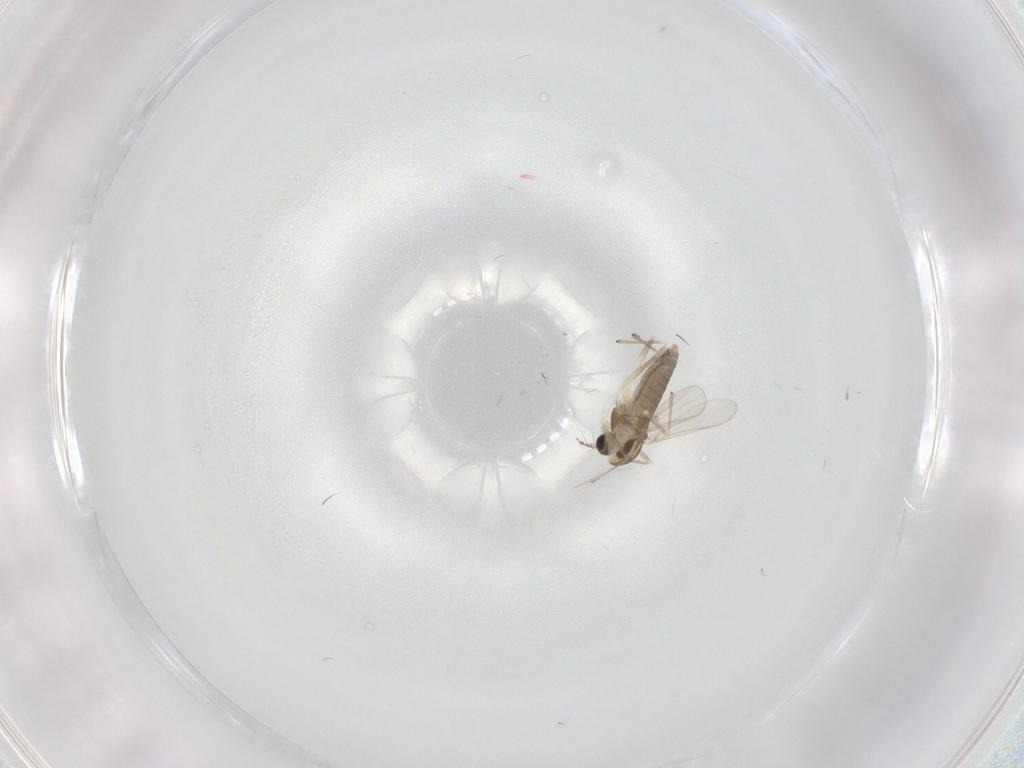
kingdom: Animalia
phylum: Arthropoda
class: Insecta
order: Diptera
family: Chironomidae
